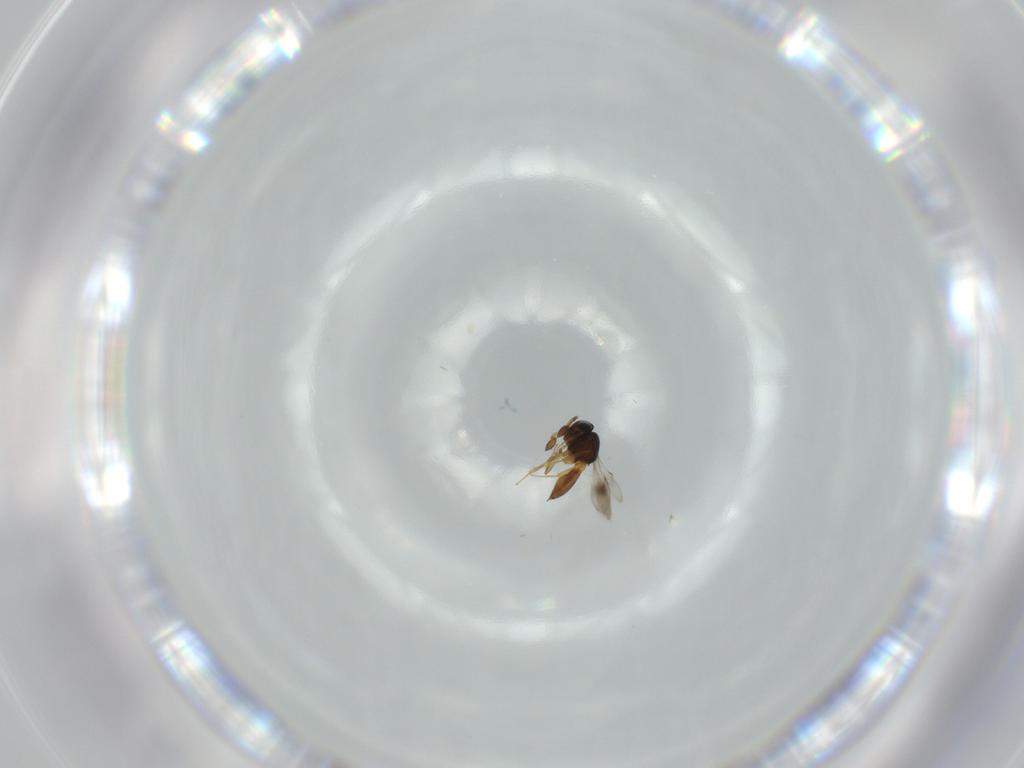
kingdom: Animalia
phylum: Arthropoda
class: Insecta
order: Hymenoptera
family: Scelionidae
